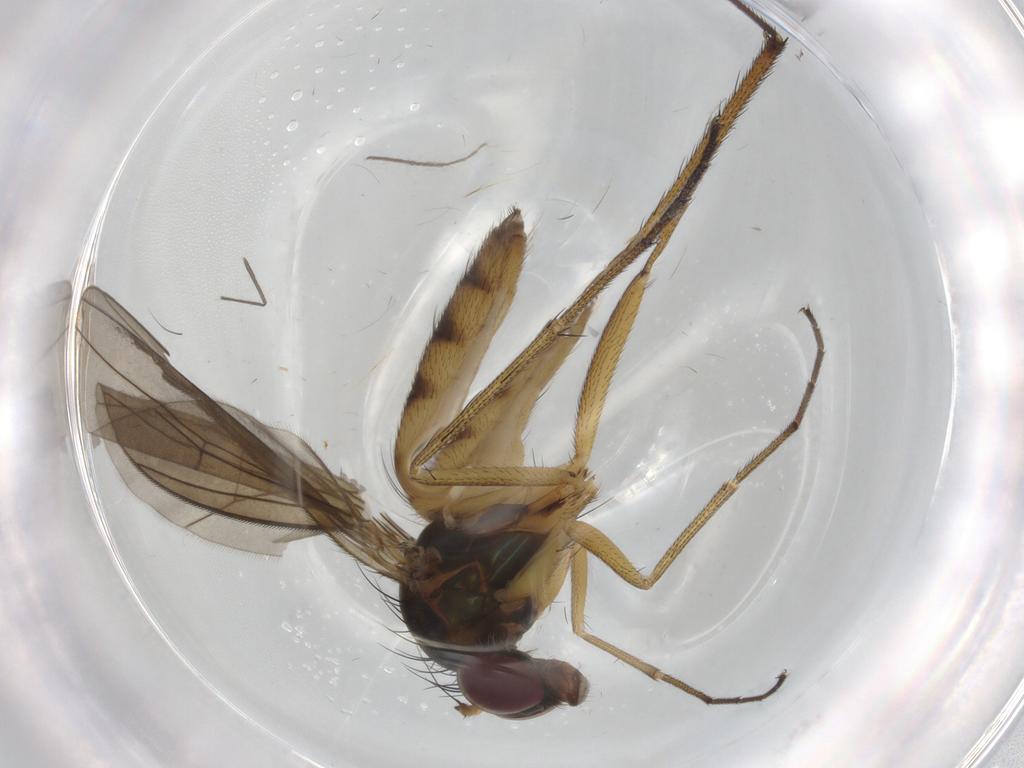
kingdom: Animalia
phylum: Arthropoda
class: Insecta
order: Diptera
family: Dolichopodidae
